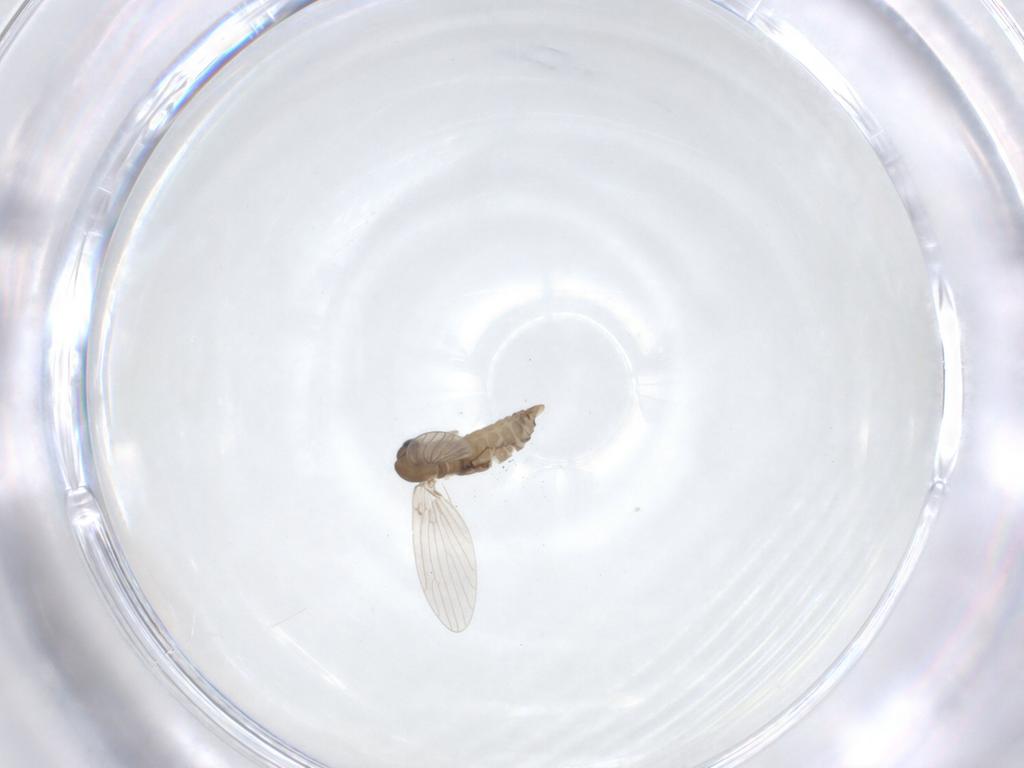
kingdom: Animalia
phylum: Arthropoda
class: Insecta
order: Diptera
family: Psychodidae
